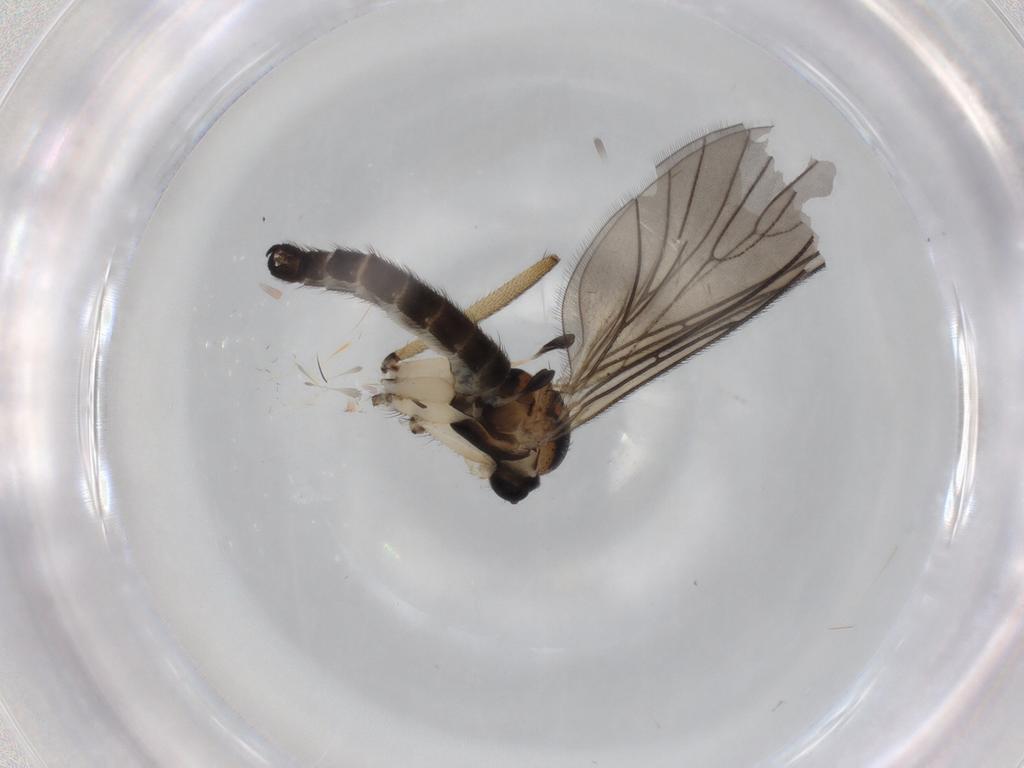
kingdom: Animalia
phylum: Arthropoda
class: Insecta
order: Diptera
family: Sciaridae
